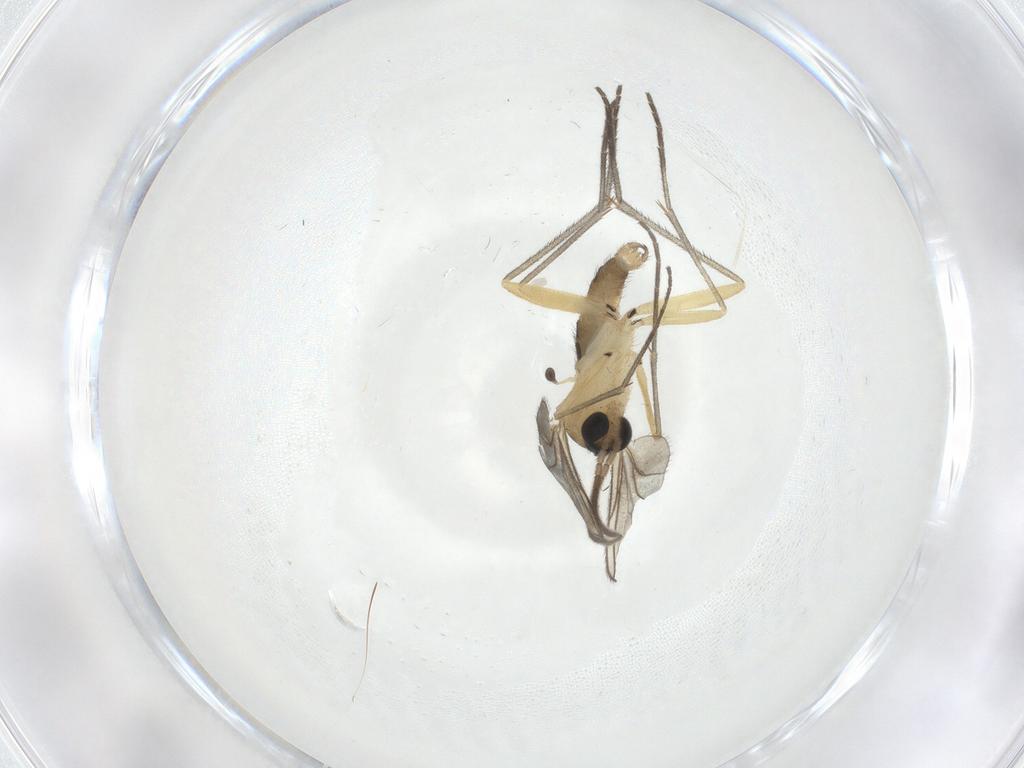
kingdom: Animalia
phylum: Arthropoda
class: Insecta
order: Diptera
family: Sciaridae
